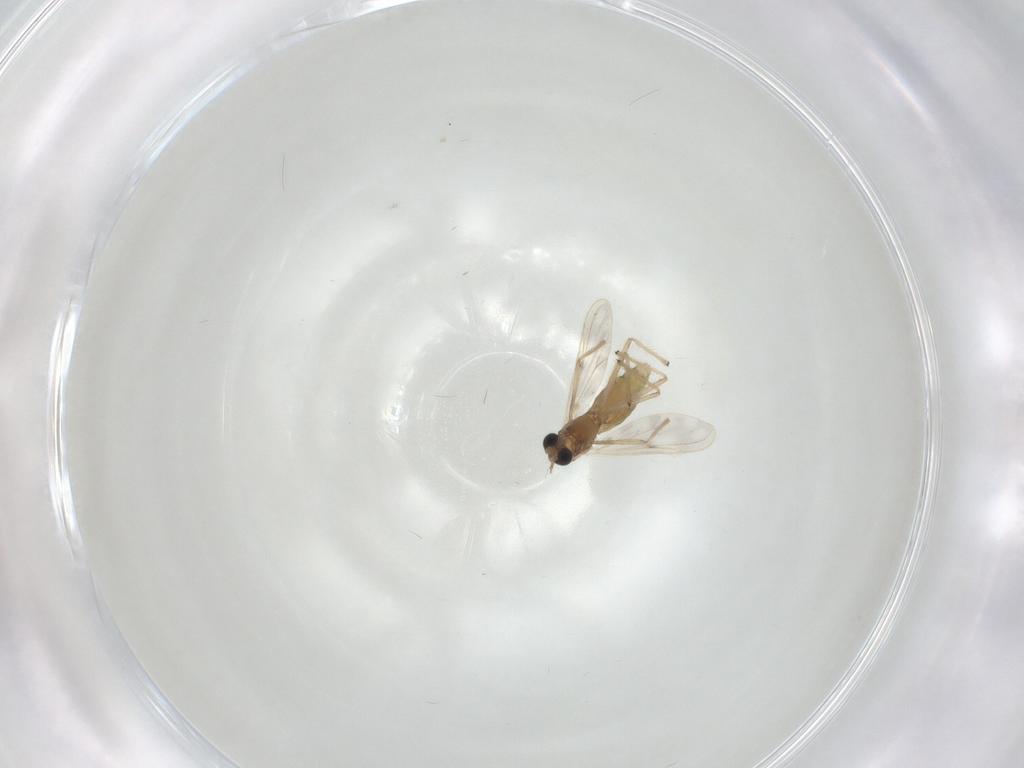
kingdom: Animalia
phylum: Arthropoda
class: Insecta
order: Diptera
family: Chironomidae
